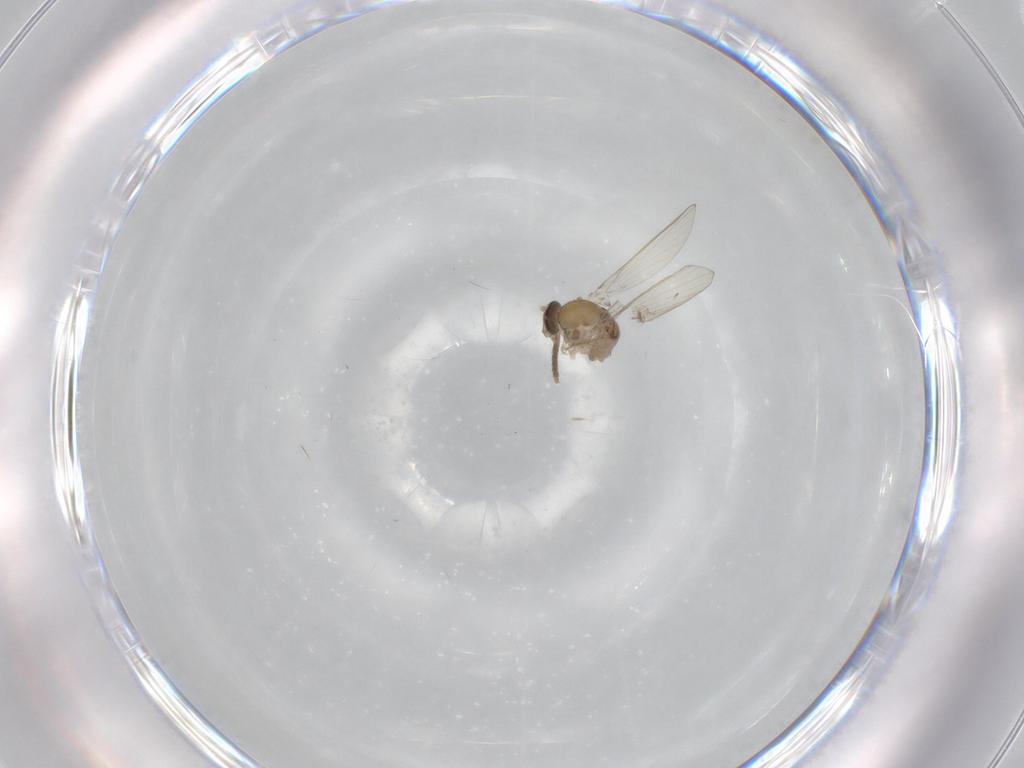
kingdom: Animalia
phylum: Arthropoda
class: Insecta
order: Diptera
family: Psychodidae
